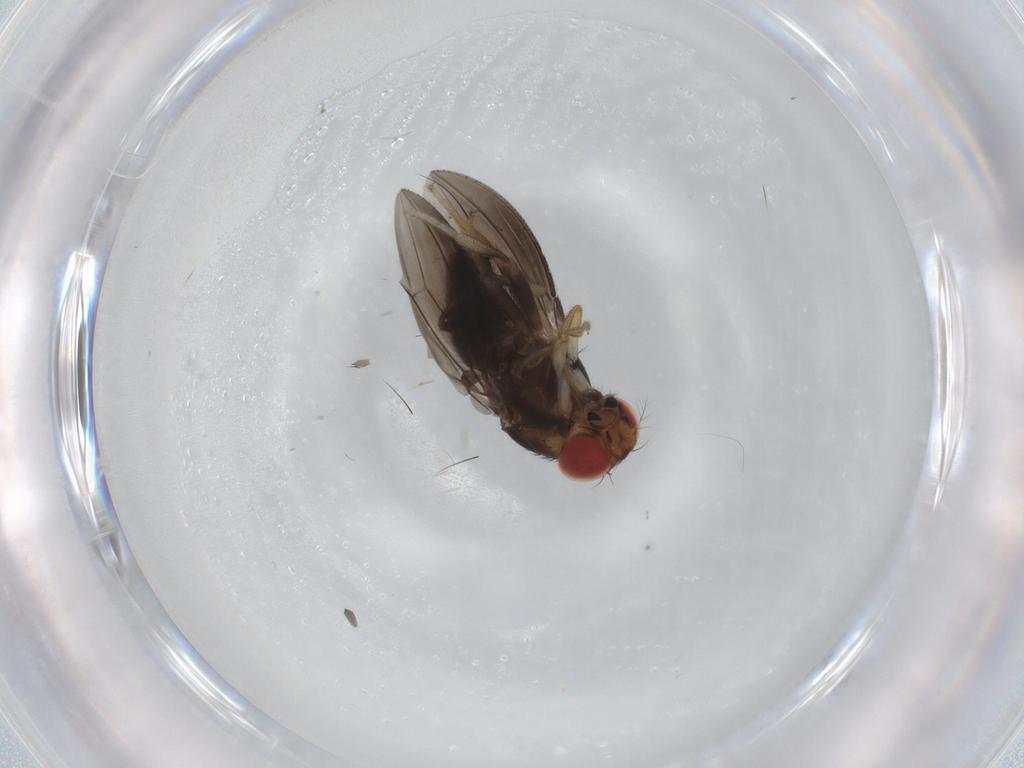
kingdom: Animalia
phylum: Arthropoda
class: Insecta
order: Diptera
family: Drosophilidae
